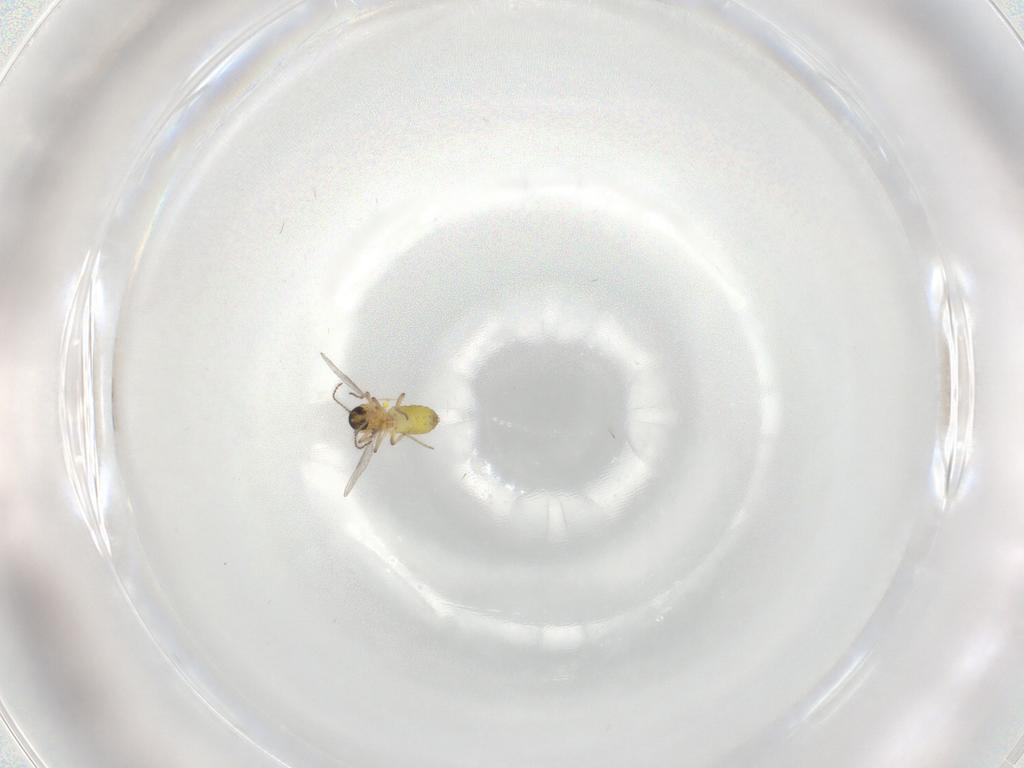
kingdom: Animalia
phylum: Arthropoda
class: Insecta
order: Diptera
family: Ceratopogonidae
